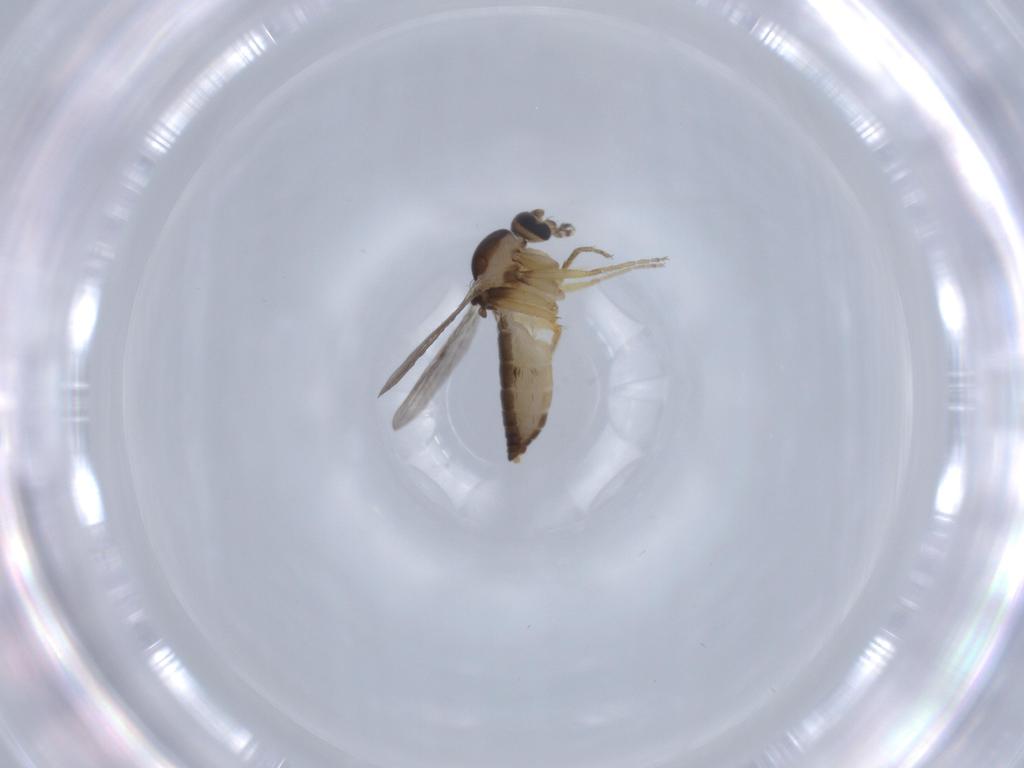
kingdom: Animalia
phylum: Arthropoda
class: Insecta
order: Diptera
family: Ceratopogonidae
